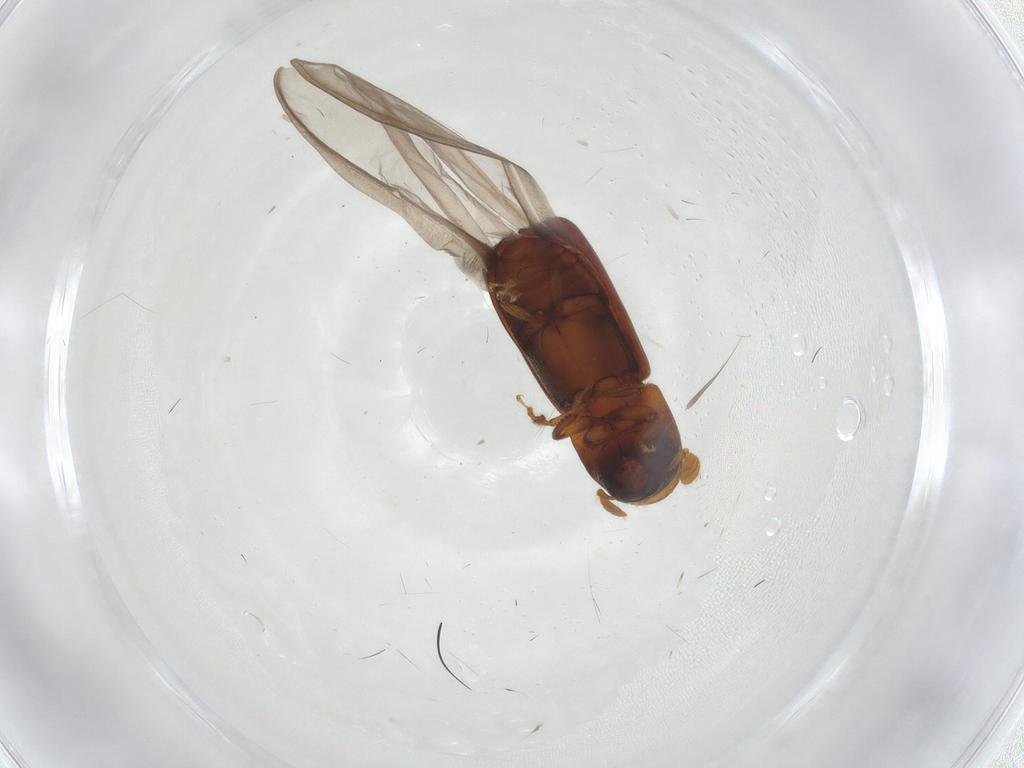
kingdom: Animalia
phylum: Arthropoda
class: Insecta
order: Coleoptera
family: Curculionidae
